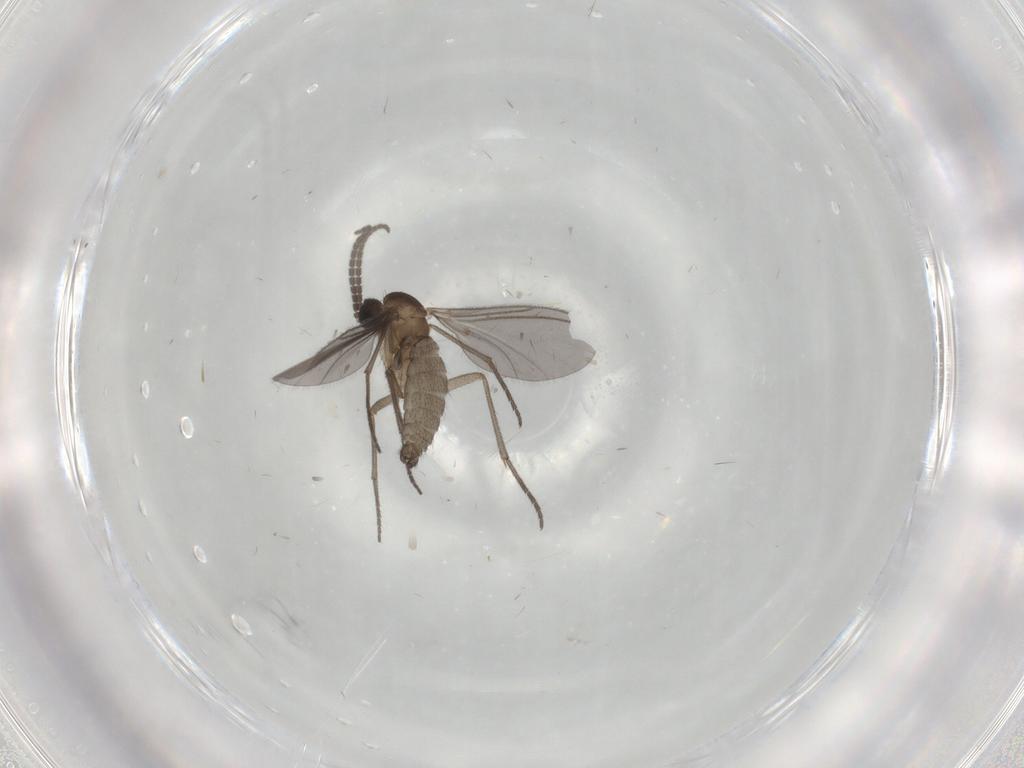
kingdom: Animalia
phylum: Arthropoda
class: Insecta
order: Diptera
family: Sciaridae
